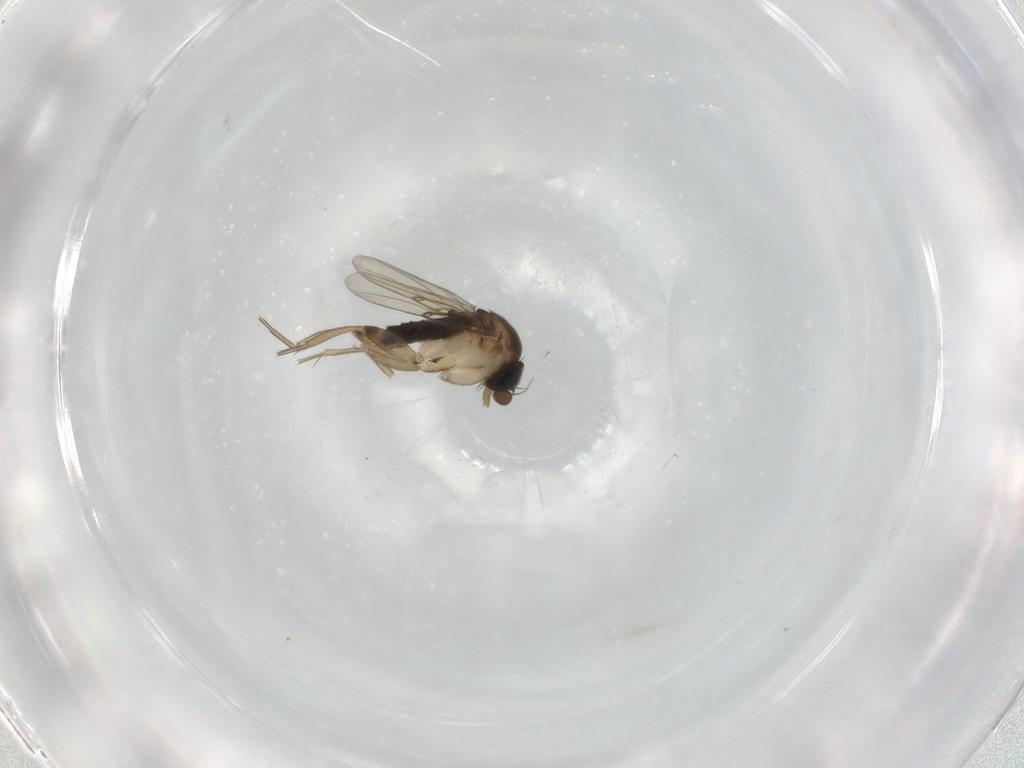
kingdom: Animalia
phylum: Arthropoda
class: Insecta
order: Diptera
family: Phoridae
